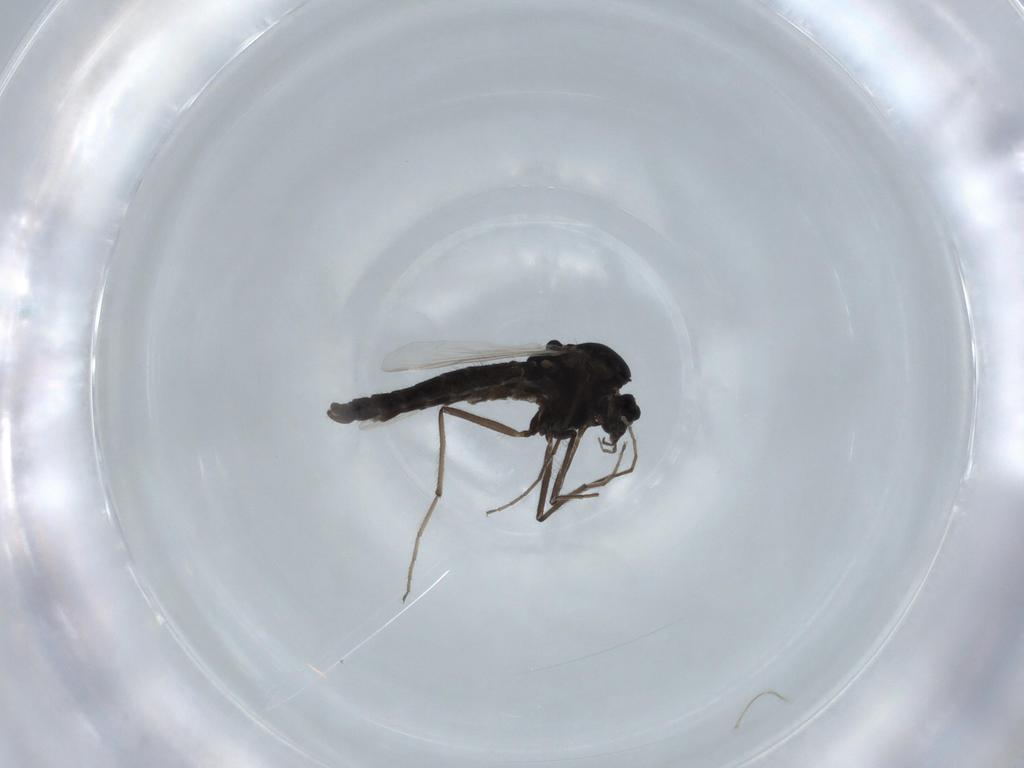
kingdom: Animalia
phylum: Arthropoda
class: Insecta
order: Diptera
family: Chironomidae
